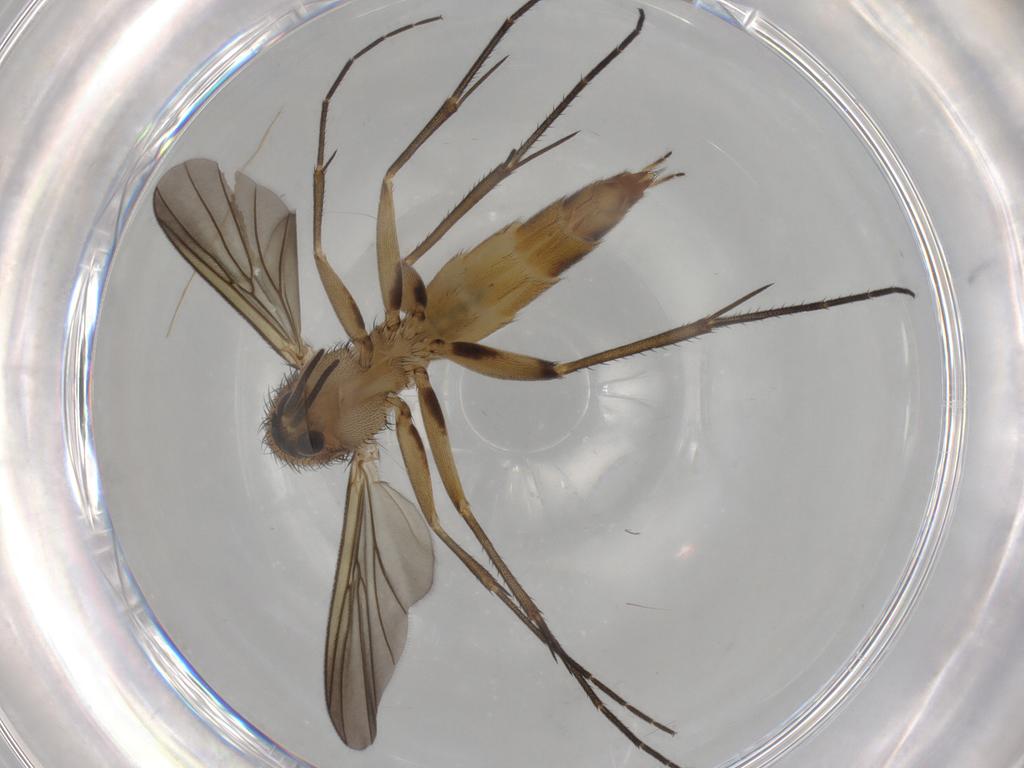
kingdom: Animalia
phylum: Arthropoda
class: Insecta
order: Diptera
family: Mycetophilidae
